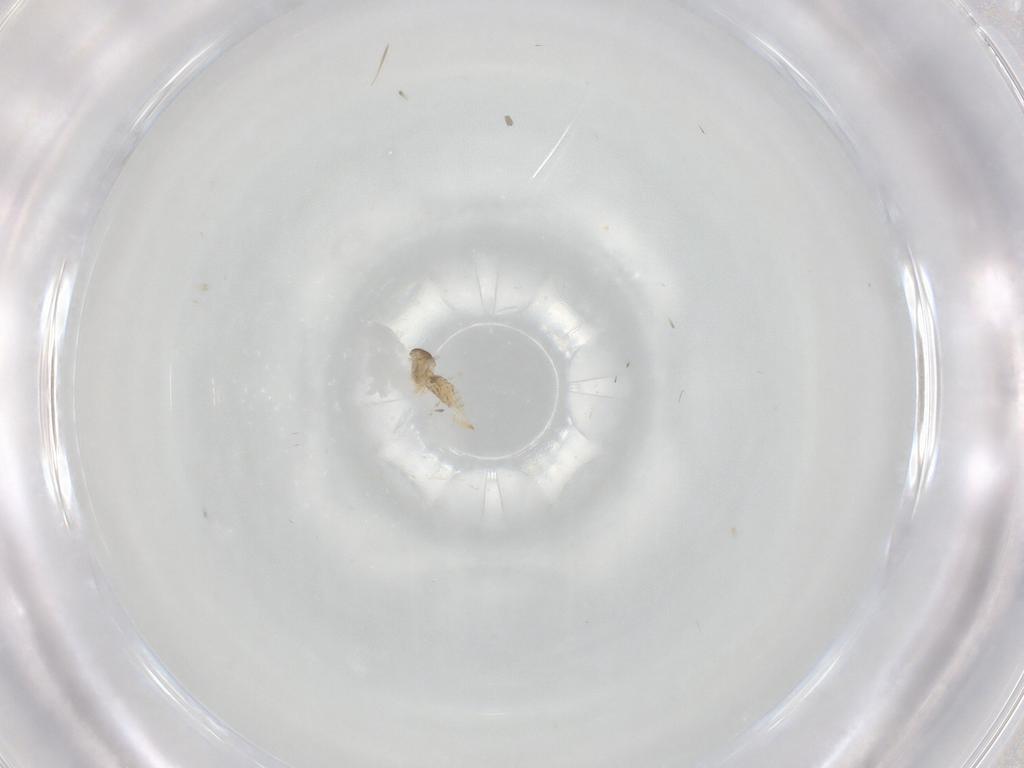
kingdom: Animalia
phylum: Arthropoda
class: Insecta
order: Diptera
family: Cecidomyiidae
